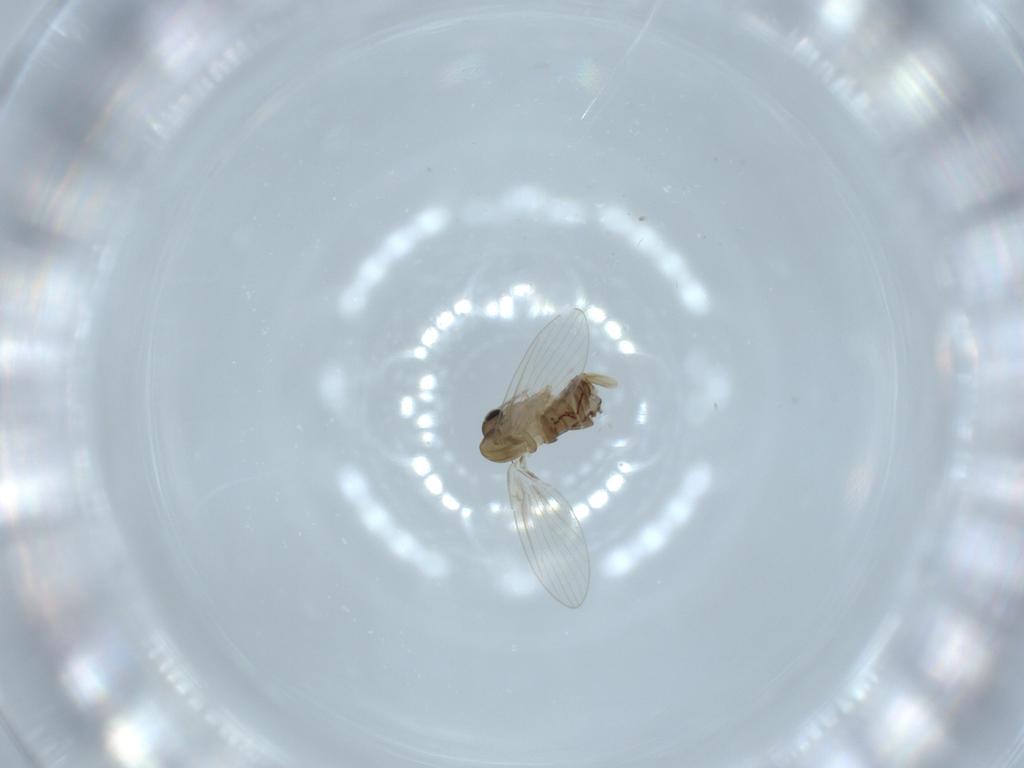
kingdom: Animalia
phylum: Arthropoda
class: Insecta
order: Diptera
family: Psychodidae
